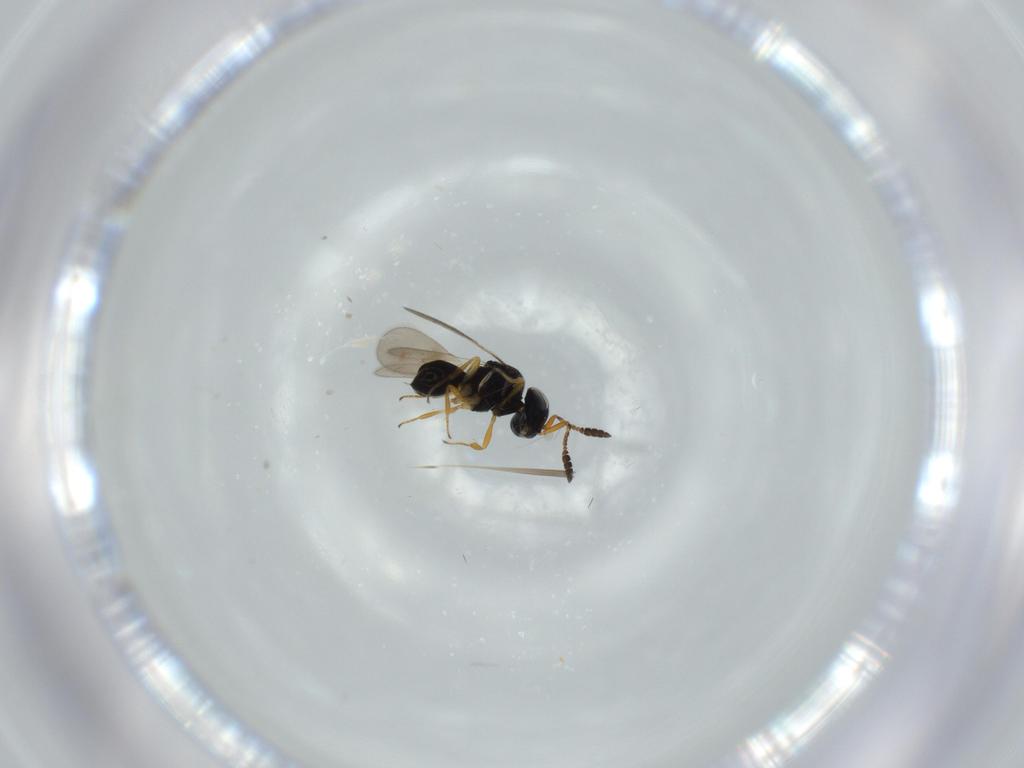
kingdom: Animalia
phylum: Arthropoda
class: Insecta
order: Hymenoptera
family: Scelionidae
